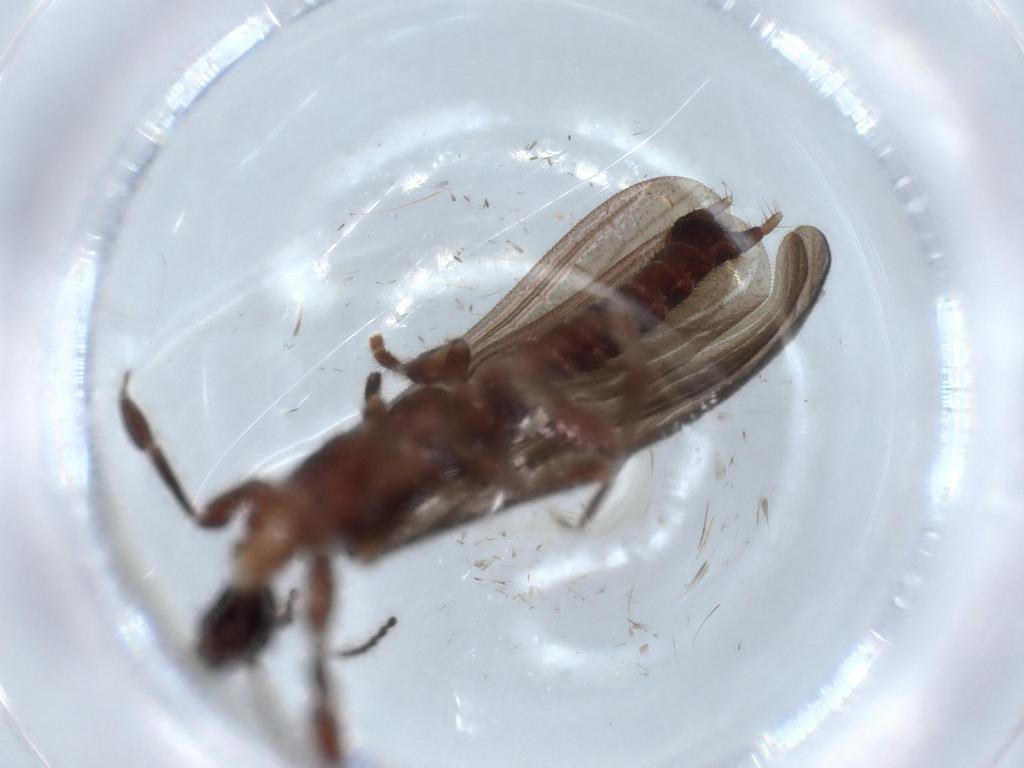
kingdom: Animalia
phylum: Arthropoda
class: Insecta
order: Embioptera
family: Anisembiidae
